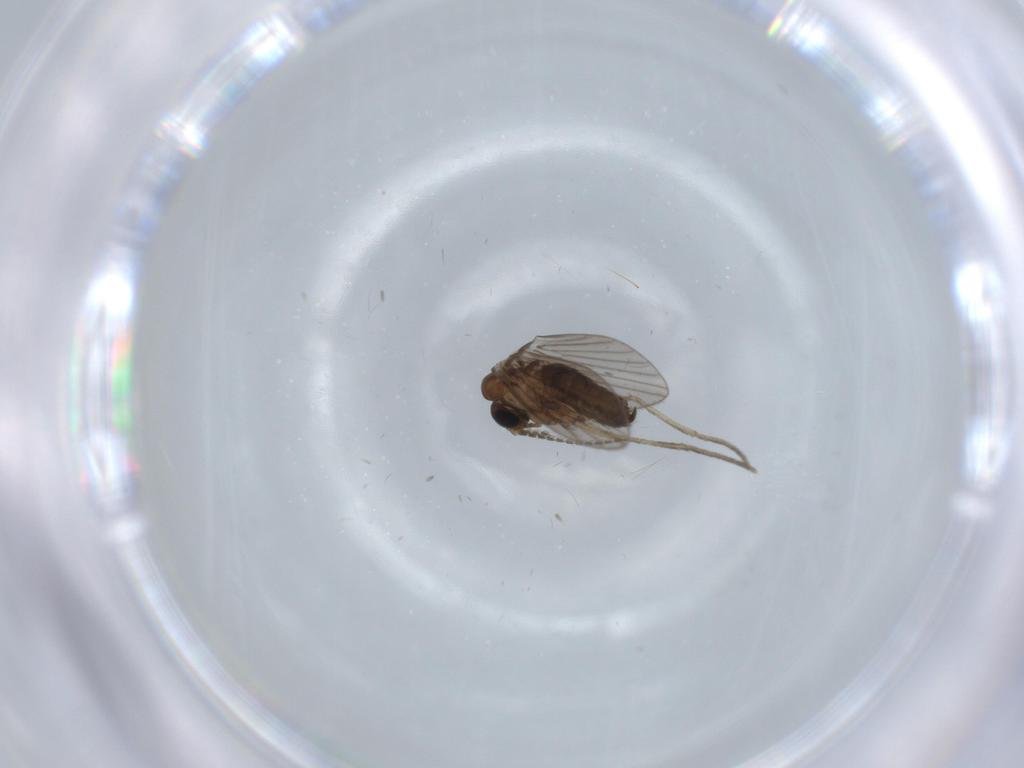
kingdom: Animalia
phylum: Arthropoda
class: Insecta
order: Diptera
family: Psychodidae
